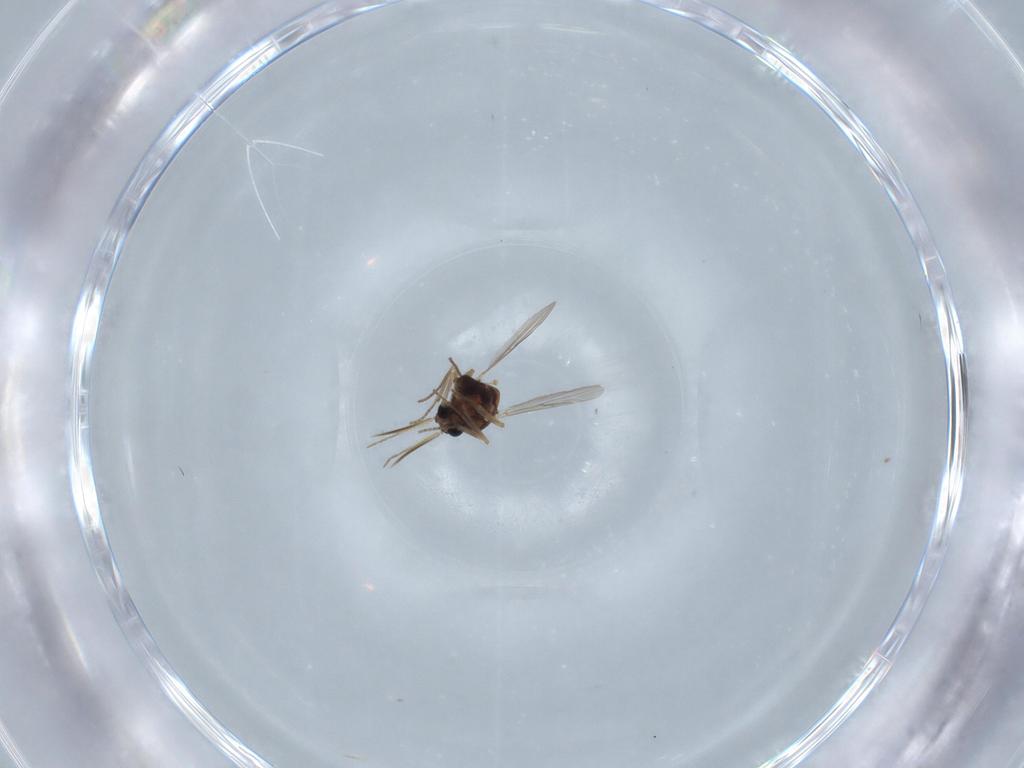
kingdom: Animalia
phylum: Arthropoda
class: Insecta
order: Diptera
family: Ceratopogonidae
